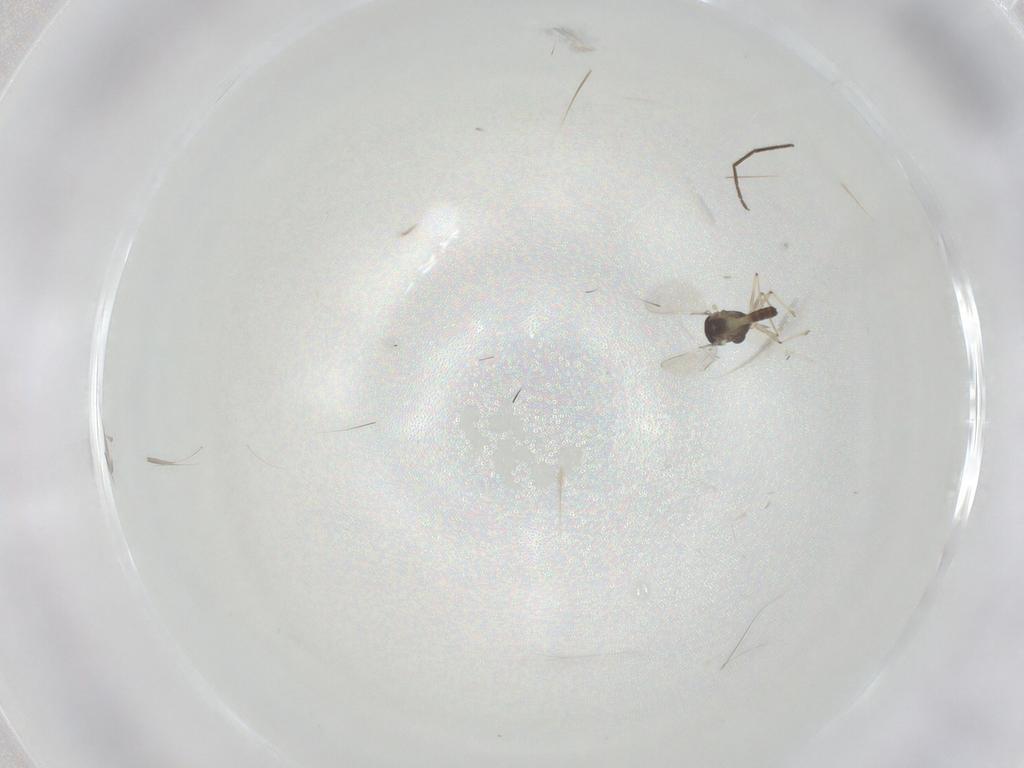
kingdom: Animalia
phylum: Arthropoda
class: Insecta
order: Diptera
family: Chironomidae
